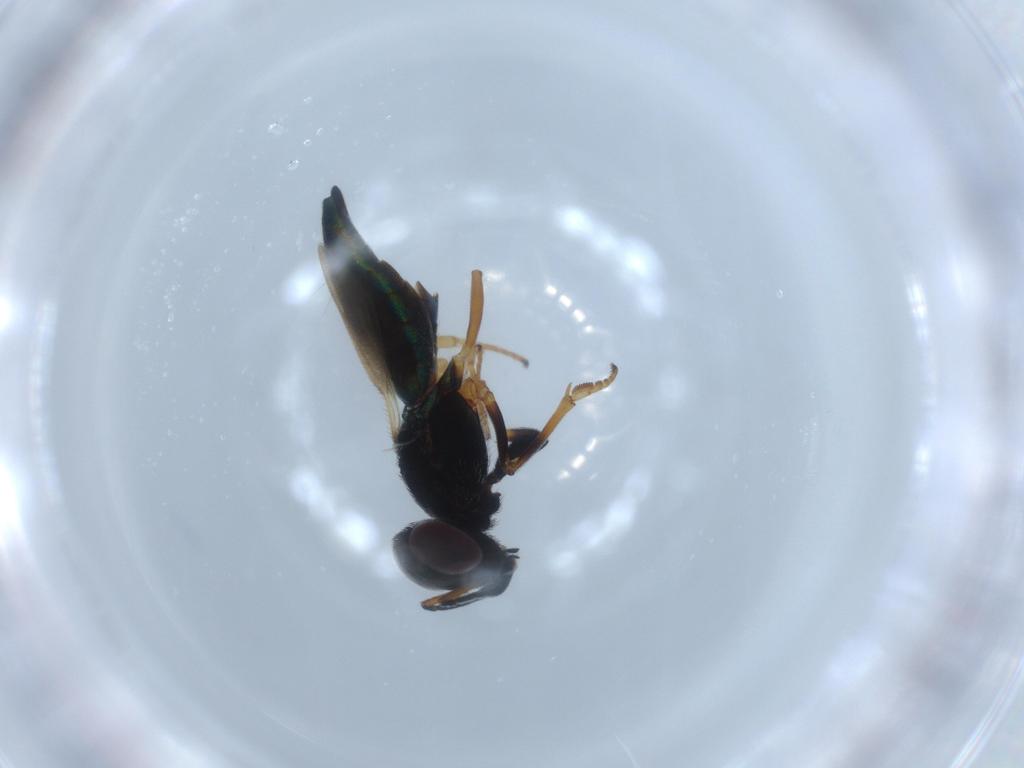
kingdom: Animalia
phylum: Arthropoda
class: Insecta
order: Hymenoptera
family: Eupelmidae
